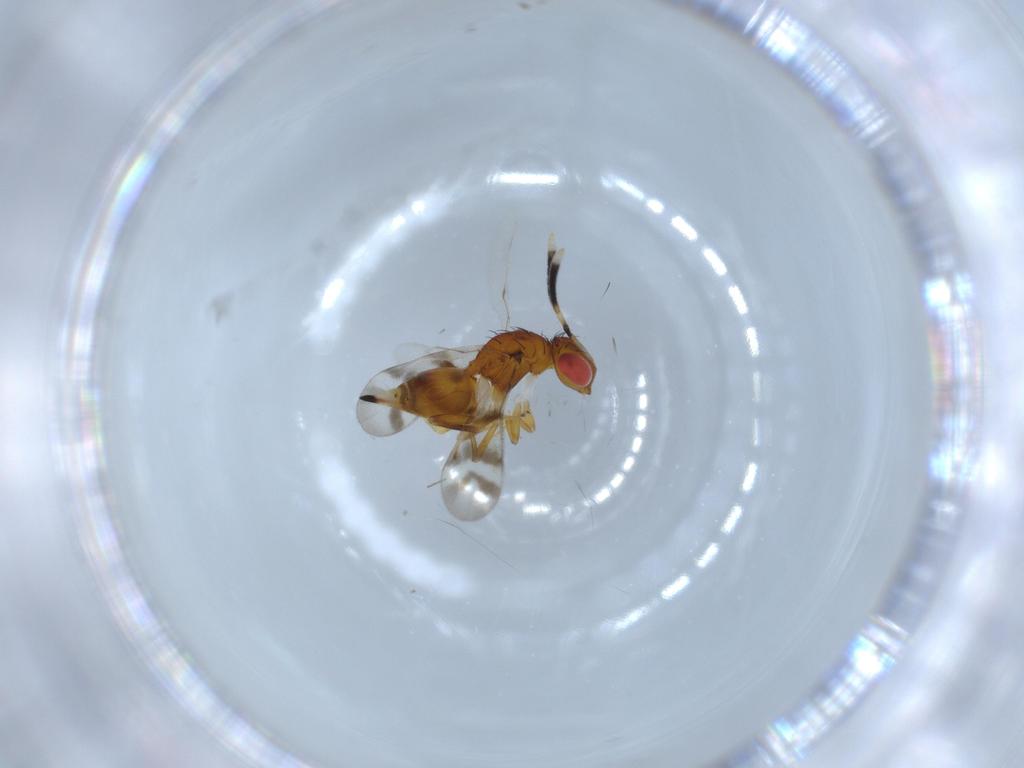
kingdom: Animalia
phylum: Arthropoda
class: Insecta
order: Hymenoptera
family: Diparidae
